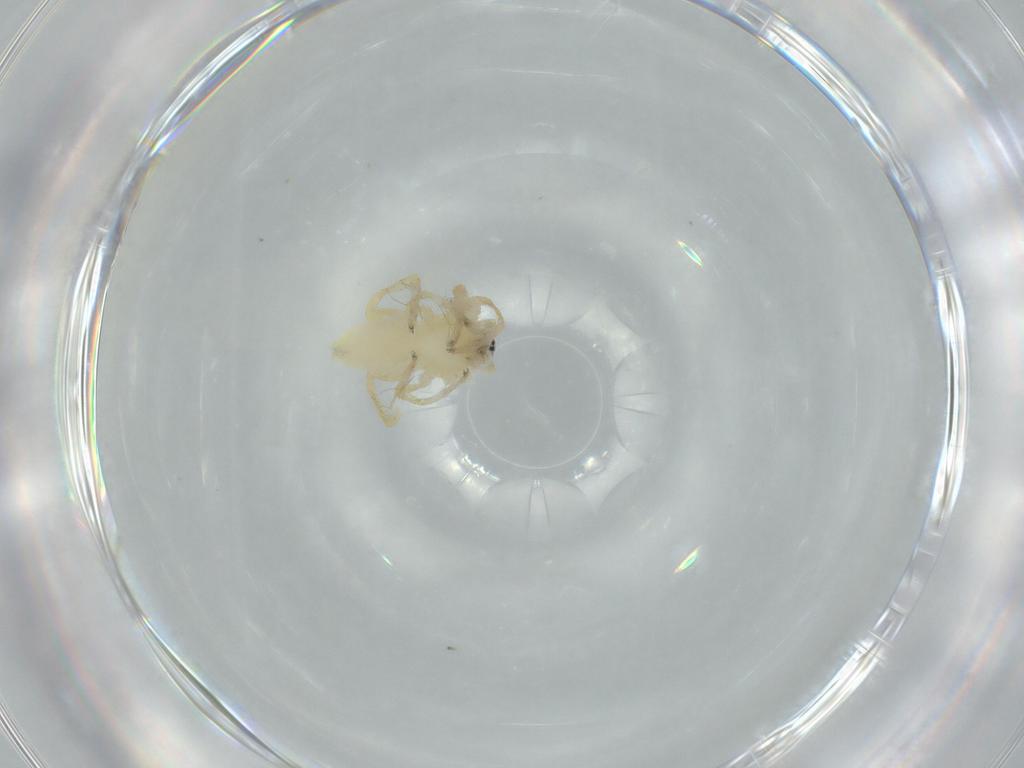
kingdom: Animalia
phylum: Arthropoda
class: Arachnida
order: Araneae
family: Anyphaenidae
